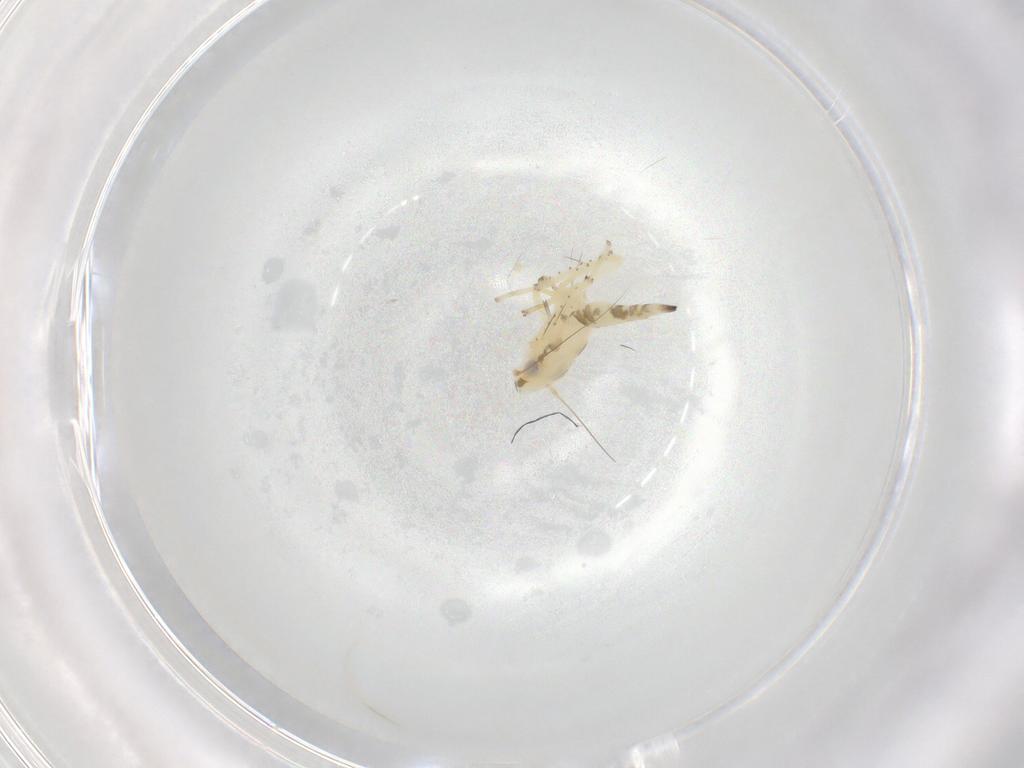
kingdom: Animalia
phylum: Arthropoda
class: Insecta
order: Hemiptera
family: Cicadellidae
